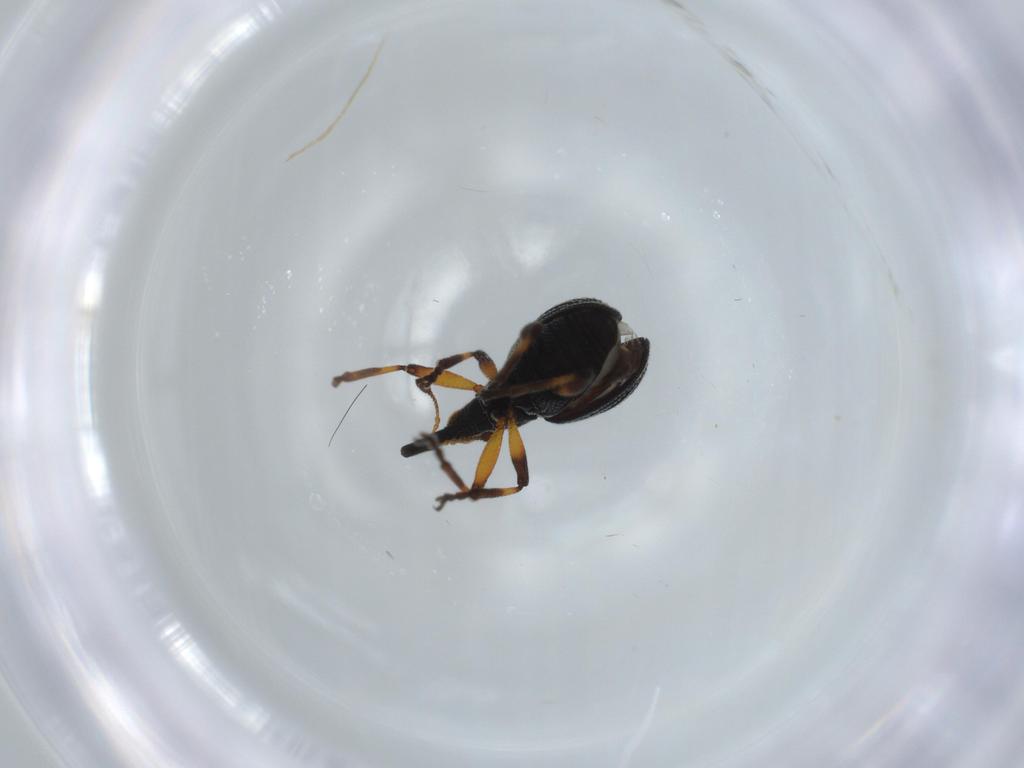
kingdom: Animalia
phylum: Arthropoda
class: Insecta
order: Coleoptera
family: Brentidae
